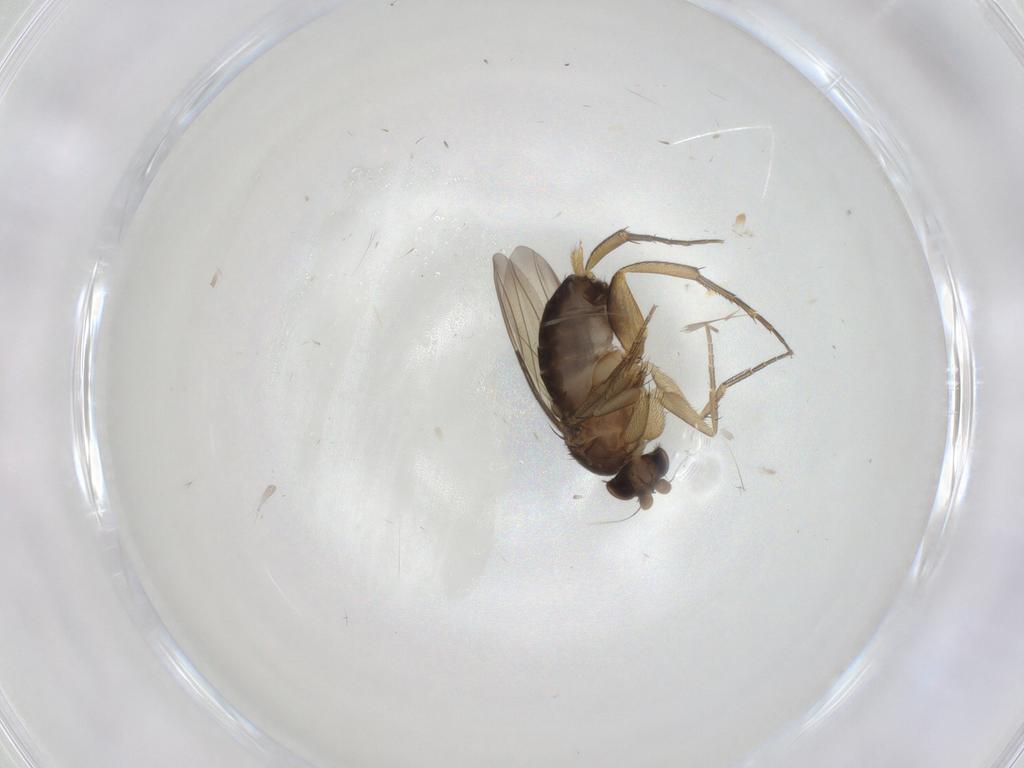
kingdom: Animalia
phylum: Arthropoda
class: Insecta
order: Diptera
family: Phoridae
